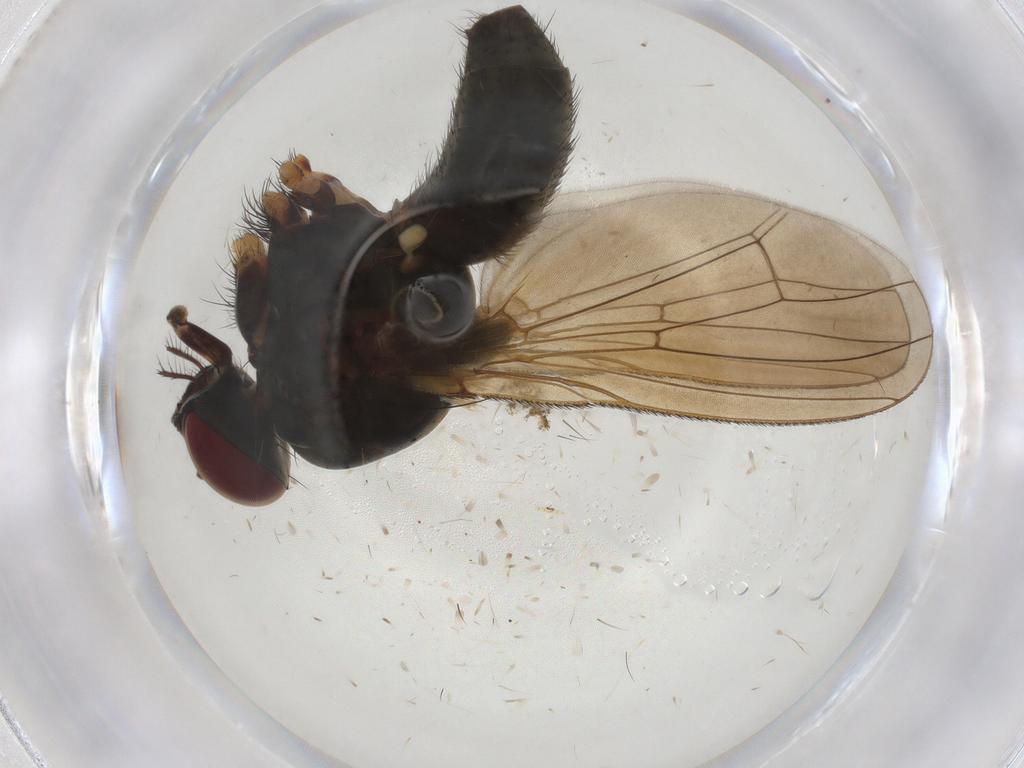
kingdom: Animalia
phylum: Arthropoda
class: Insecta
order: Diptera
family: Muscidae
